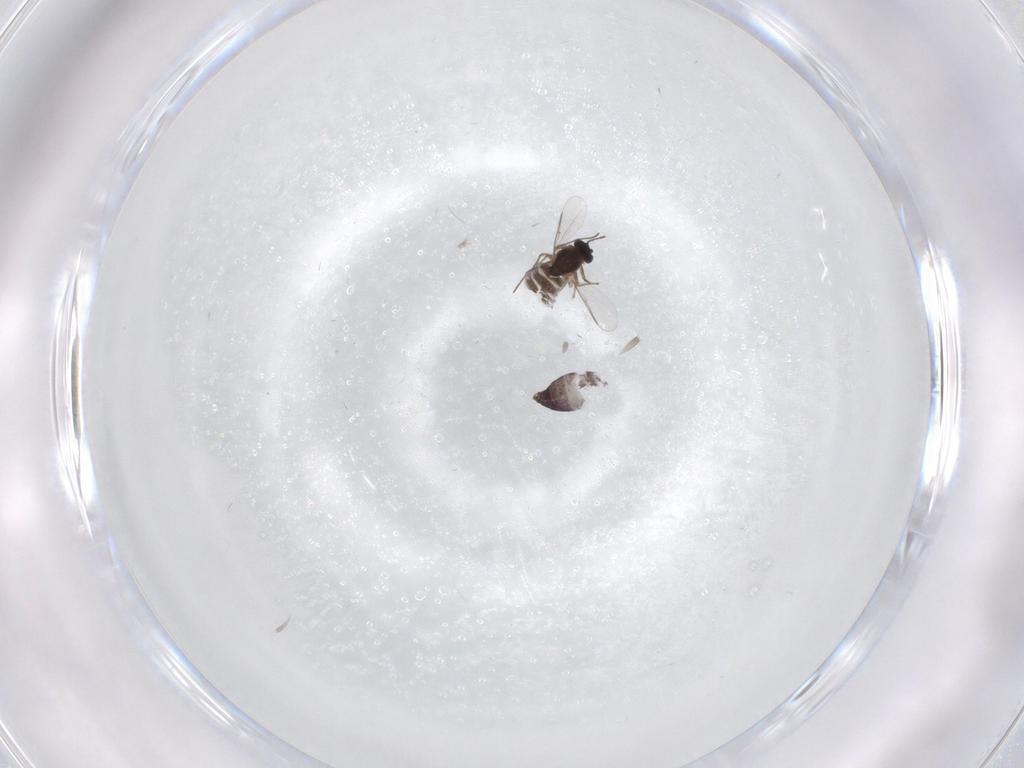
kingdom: Animalia
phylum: Arthropoda
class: Insecta
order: Diptera
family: Chironomidae
